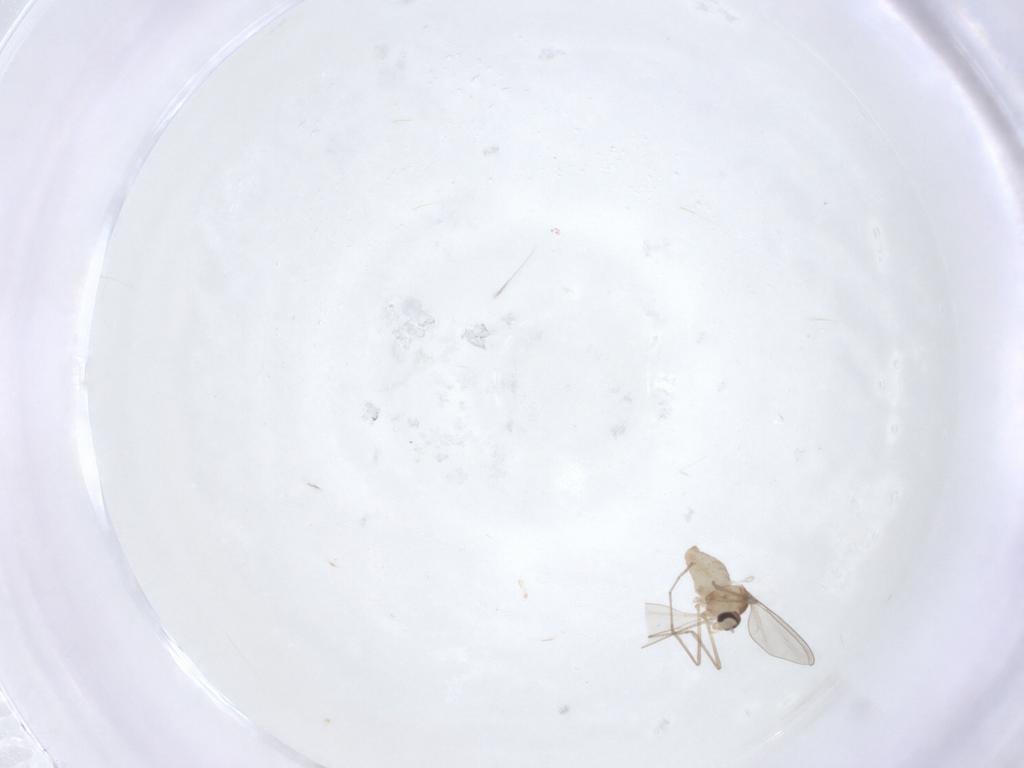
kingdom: Animalia
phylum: Arthropoda
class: Insecta
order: Diptera
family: Cecidomyiidae
